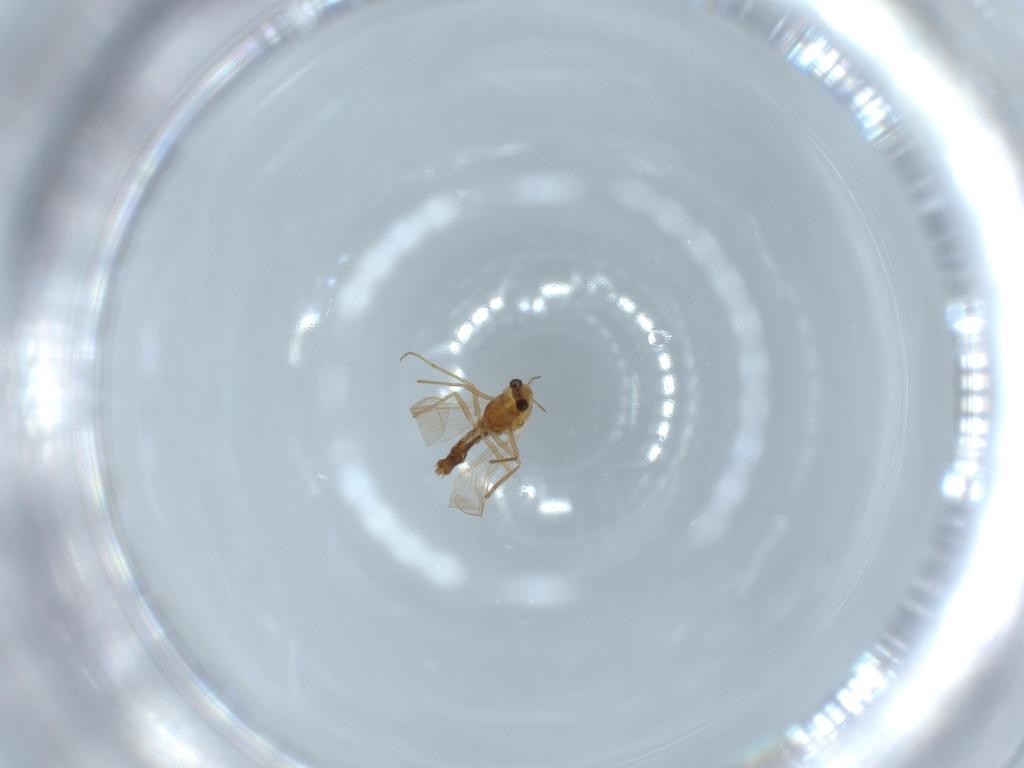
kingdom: Animalia
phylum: Arthropoda
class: Insecta
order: Diptera
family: Chironomidae
